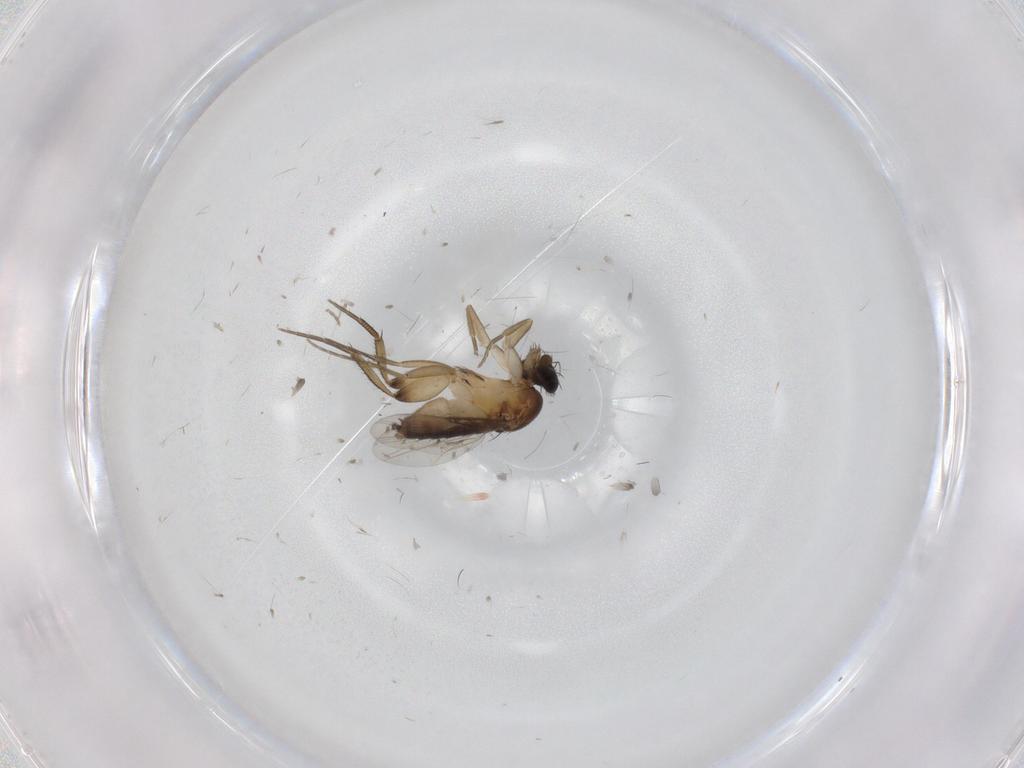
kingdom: Animalia
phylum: Arthropoda
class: Insecta
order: Diptera
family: Phoridae
